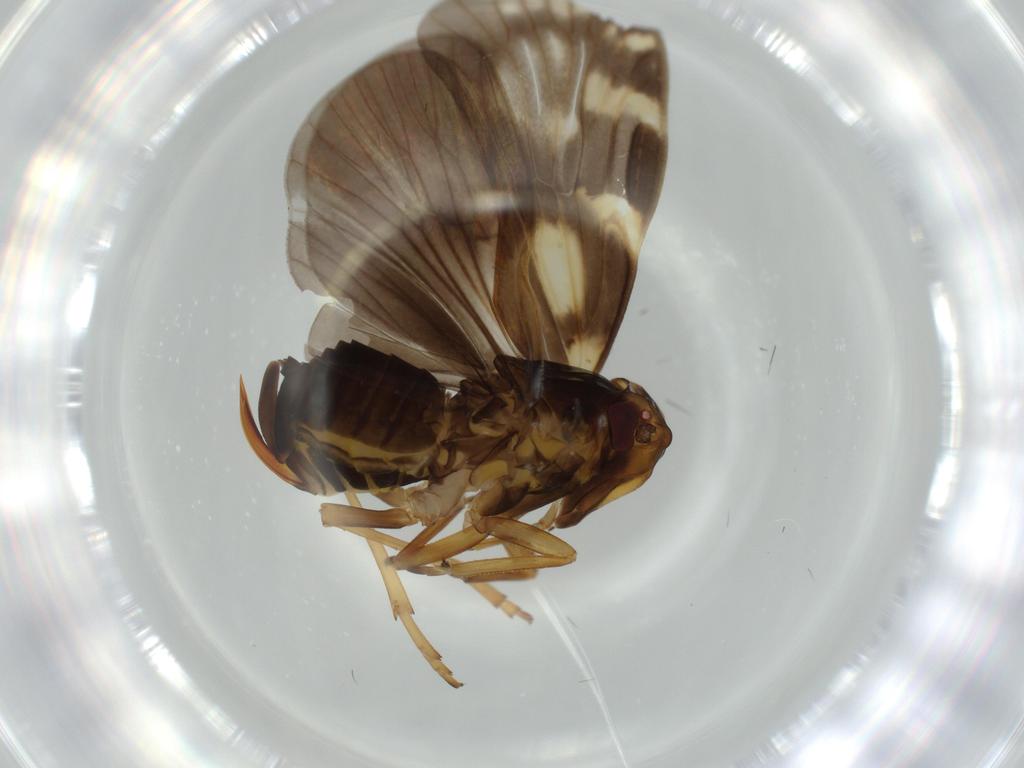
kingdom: Animalia
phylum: Arthropoda
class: Insecta
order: Hemiptera
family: Cixiidae
